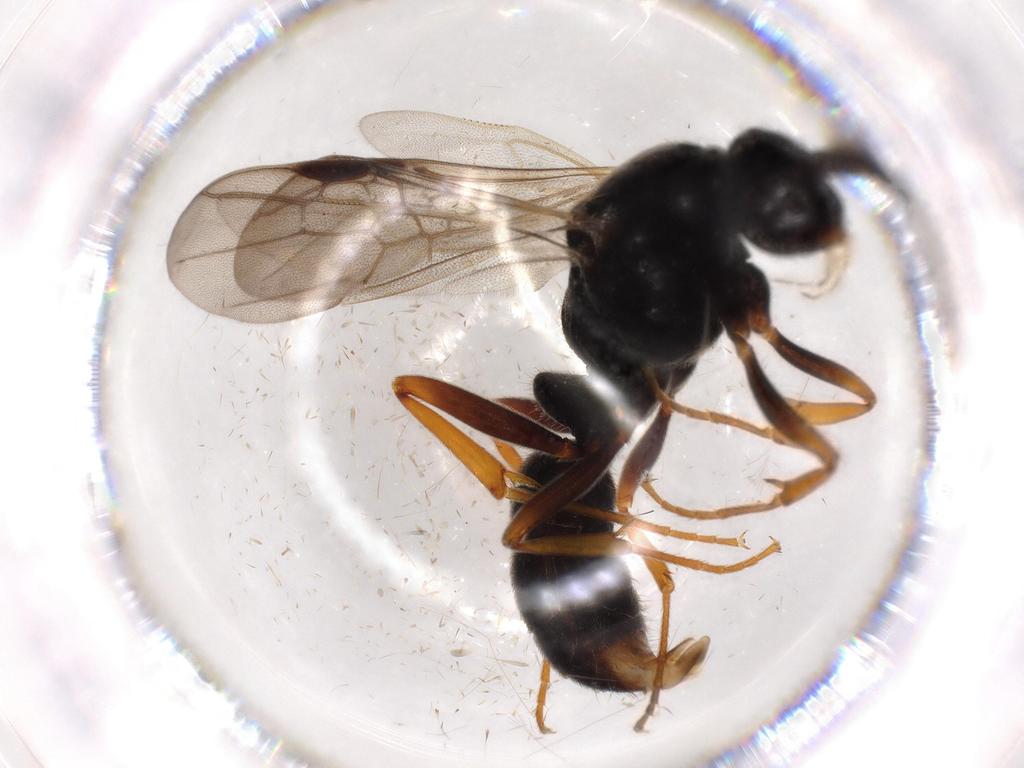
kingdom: Animalia
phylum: Arthropoda
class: Insecta
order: Hymenoptera
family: Formicidae
